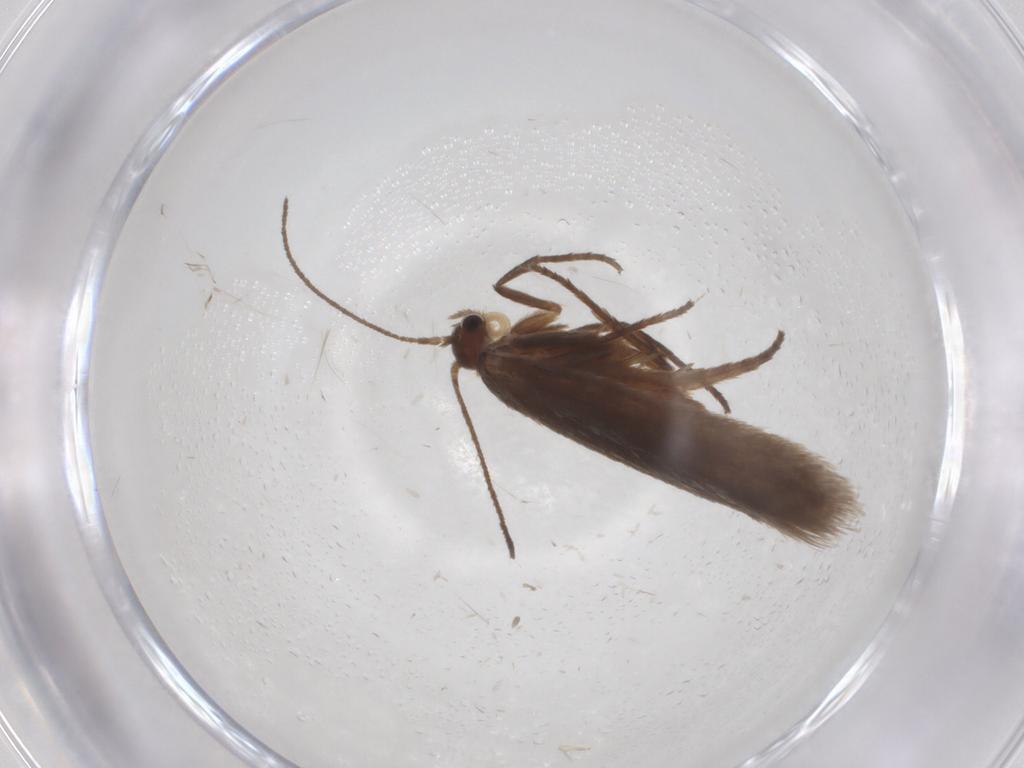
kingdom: Animalia
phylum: Arthropoda
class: Insecta
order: Lepidoptera
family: Limacodidae
